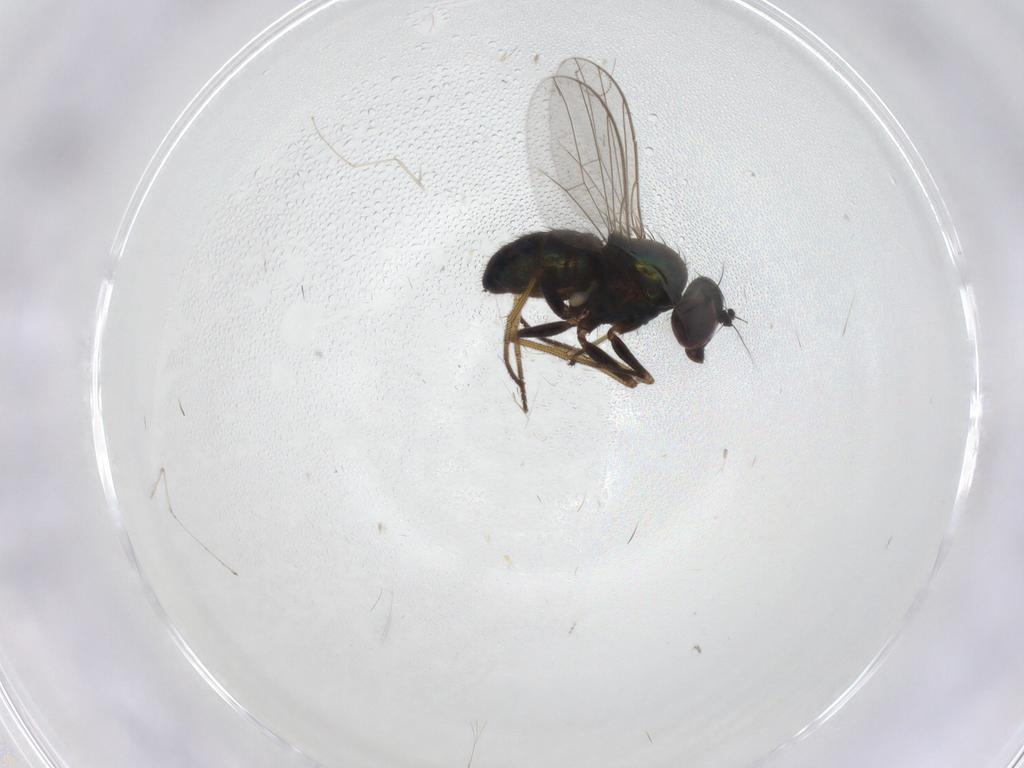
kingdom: Animalia
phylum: Arthropoda
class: Insecta
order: Diptera
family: Dolichopodidae
